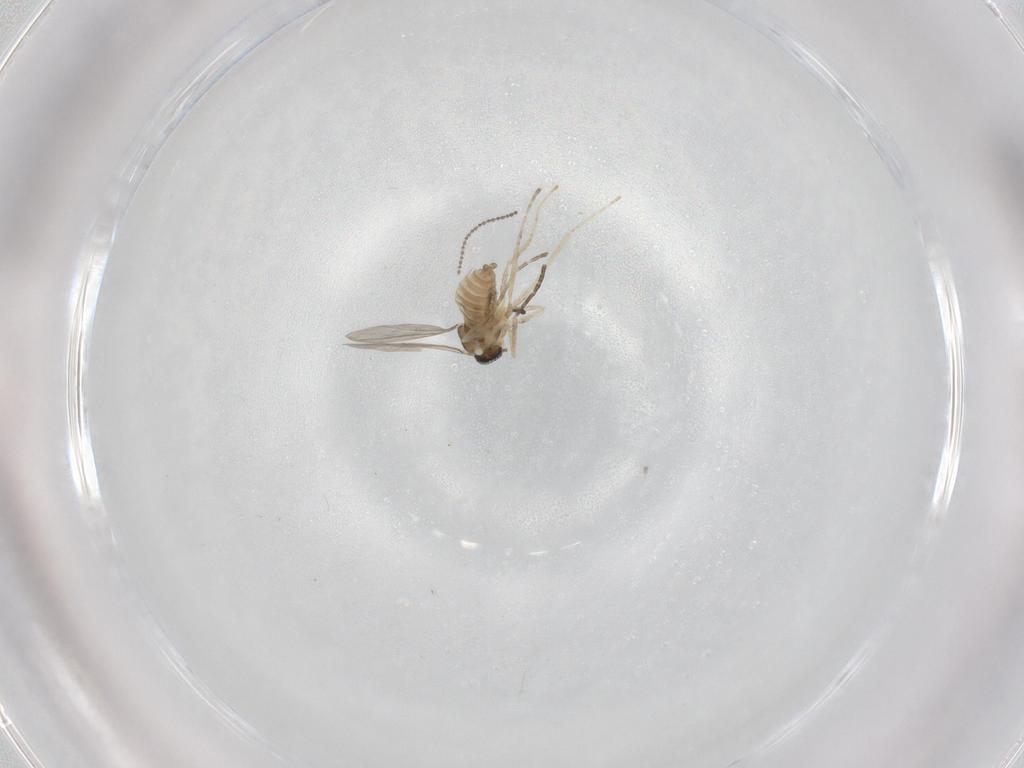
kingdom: Animalia
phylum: Arthropoda
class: Insecta
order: Diptera
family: Cecidomyiidae
